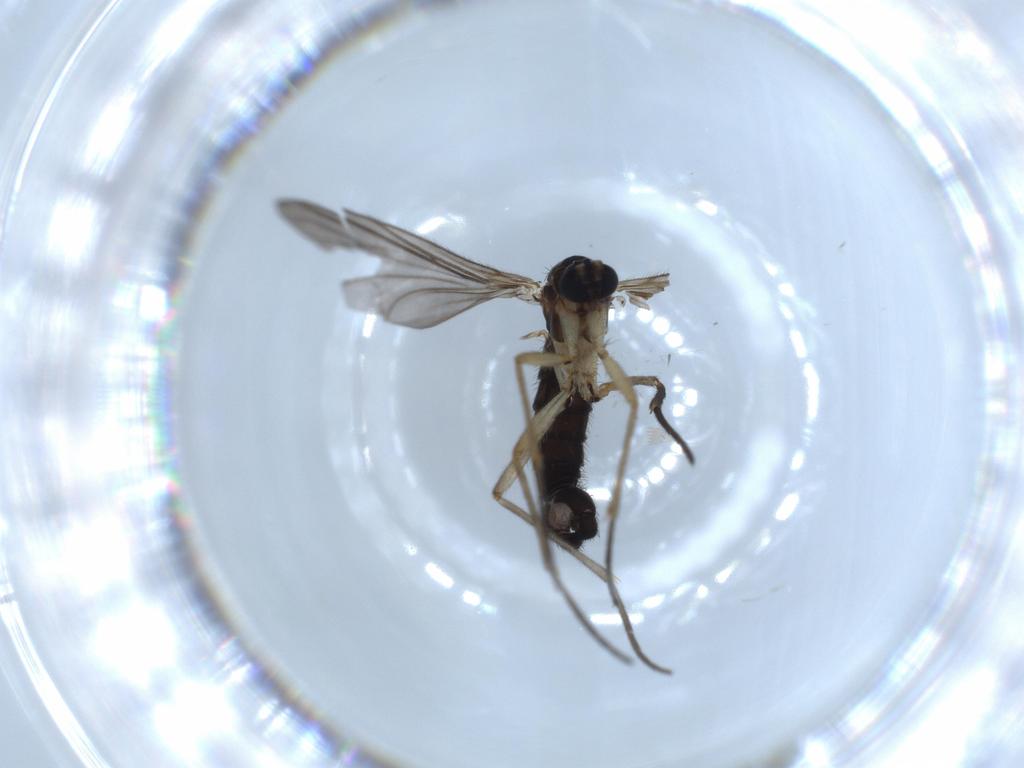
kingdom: Animalia
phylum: Arthropoda
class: Insecta
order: Diptera
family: Sciaridae
